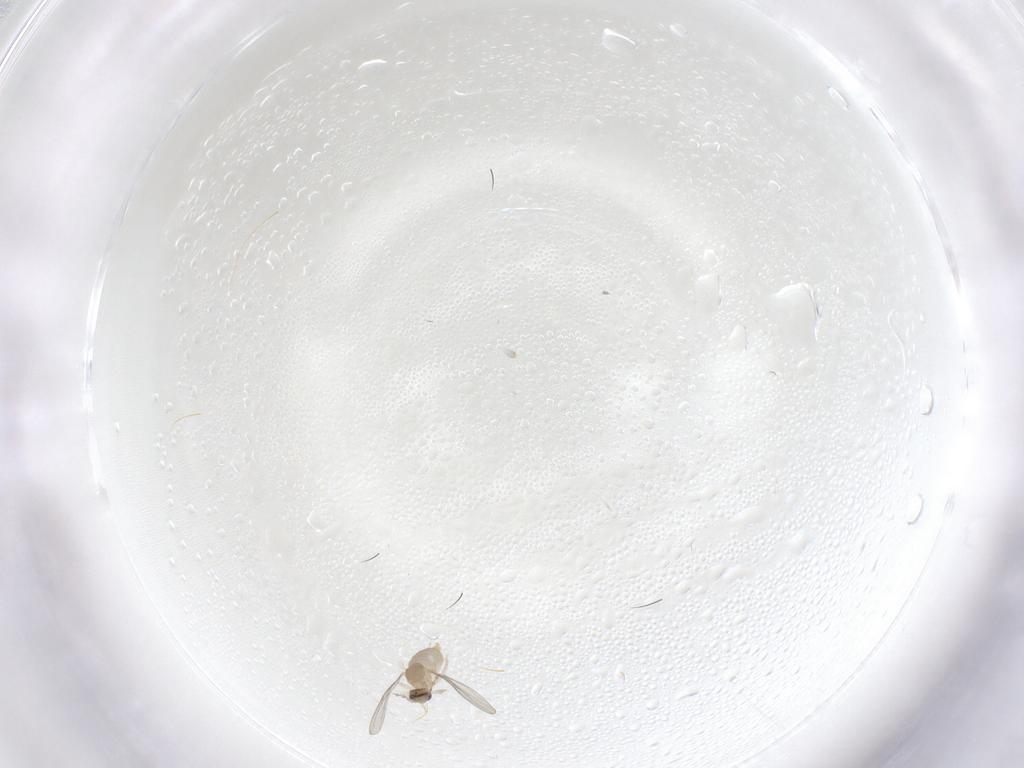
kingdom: Animalia
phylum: Arthropoda
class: Insecta
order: Diptera
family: Cecidomyiidae
